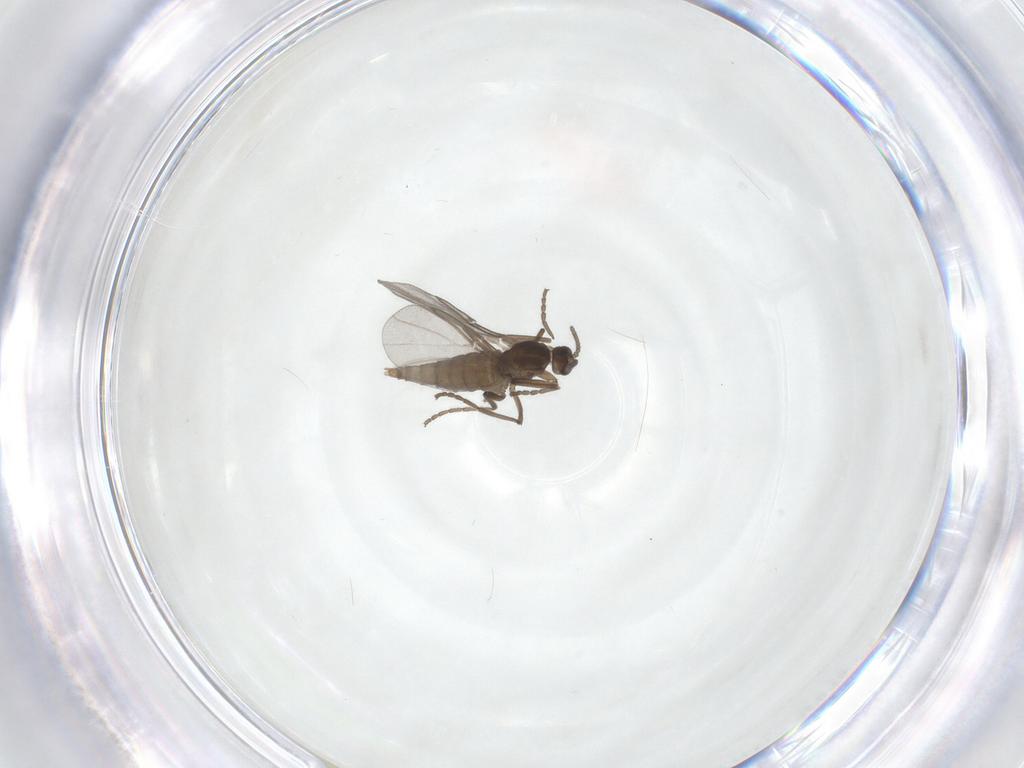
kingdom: Animalia
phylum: Arthropoda
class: Insecta
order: Diptera
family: Cecidomyiidae
